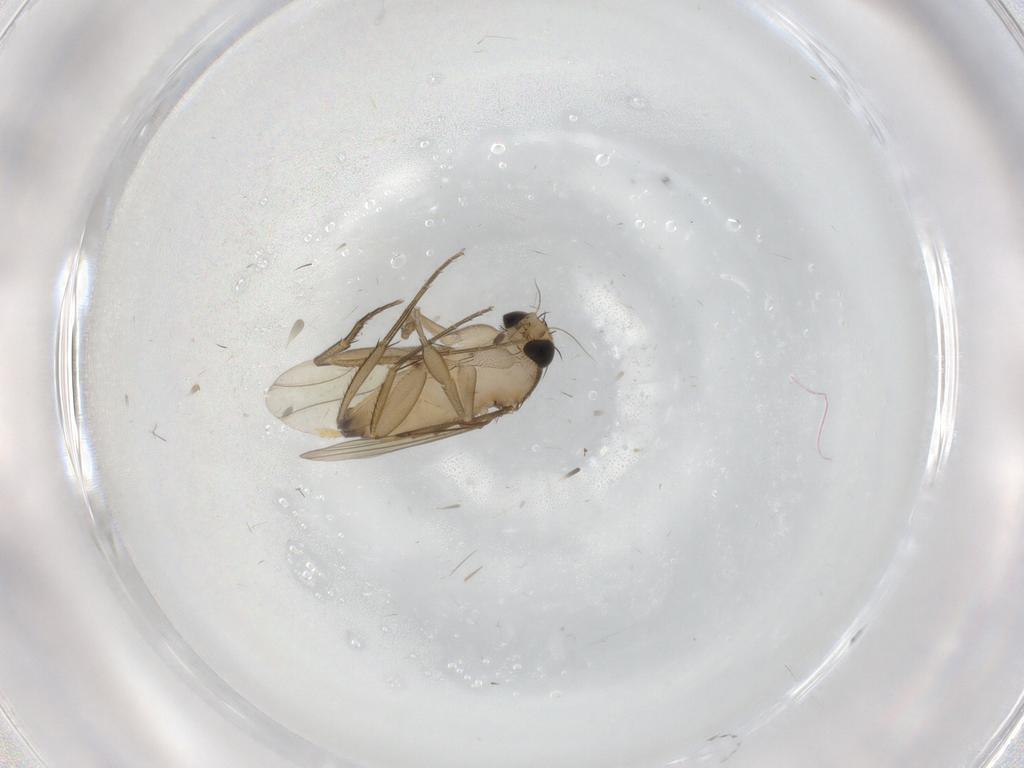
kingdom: Animalia
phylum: Arthropoda
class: Insecta
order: Diptera
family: Phoridae
